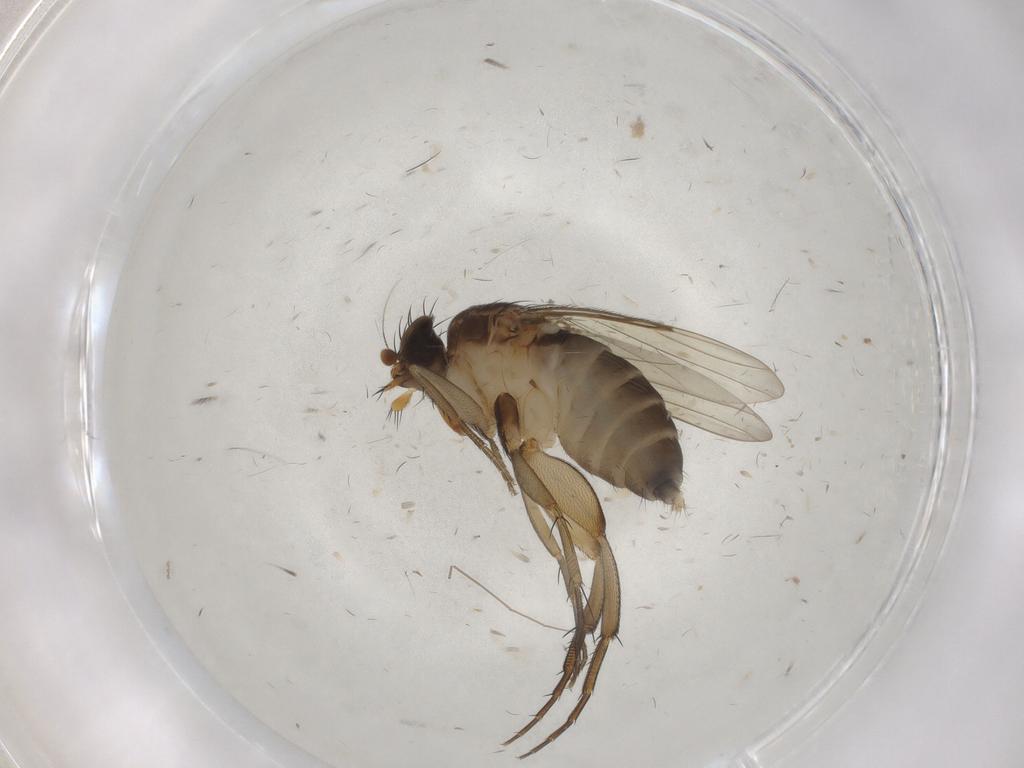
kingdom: Animalia
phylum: Arthropoda
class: Insecta
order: Diptera
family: Phoridae
